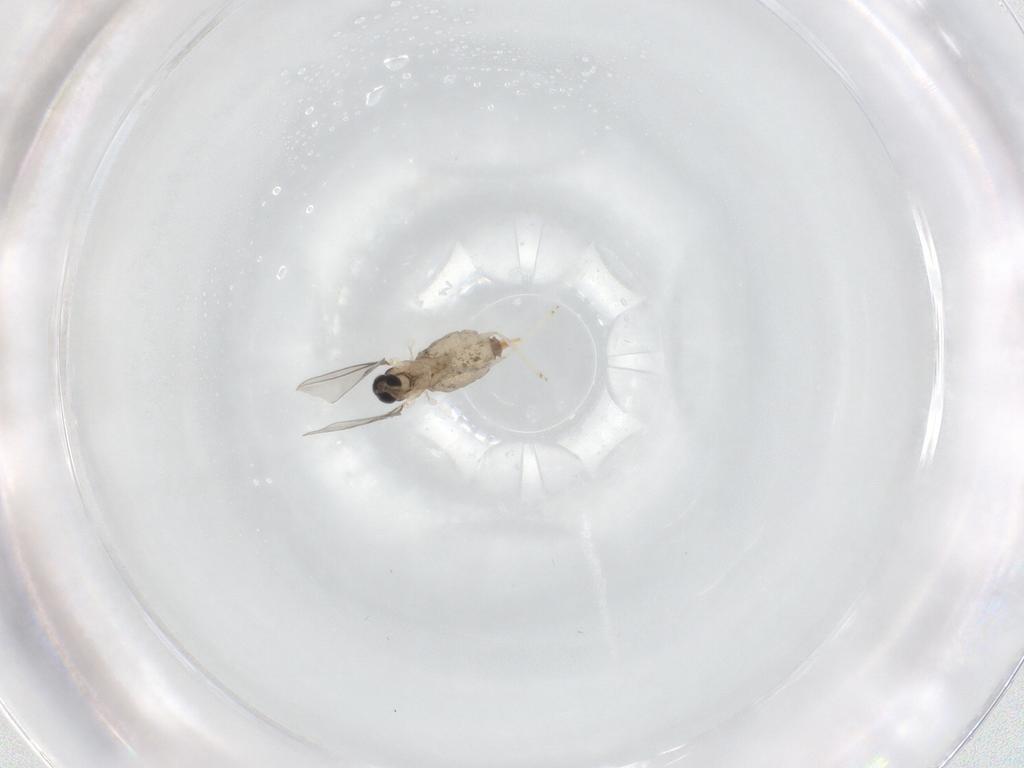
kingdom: Animalia
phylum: Arthropoda
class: Insecta
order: Diptera
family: Cecidomyiidae
